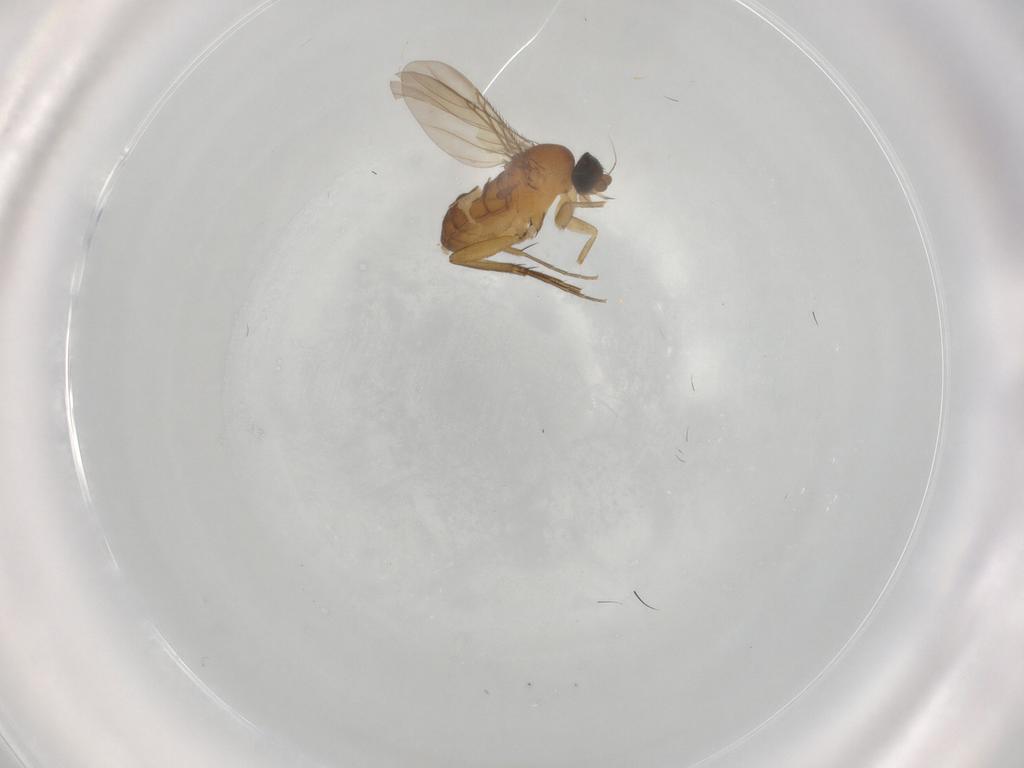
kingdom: Animalia
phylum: Arthropoda
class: Insecta
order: Diptera
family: Phoridae
